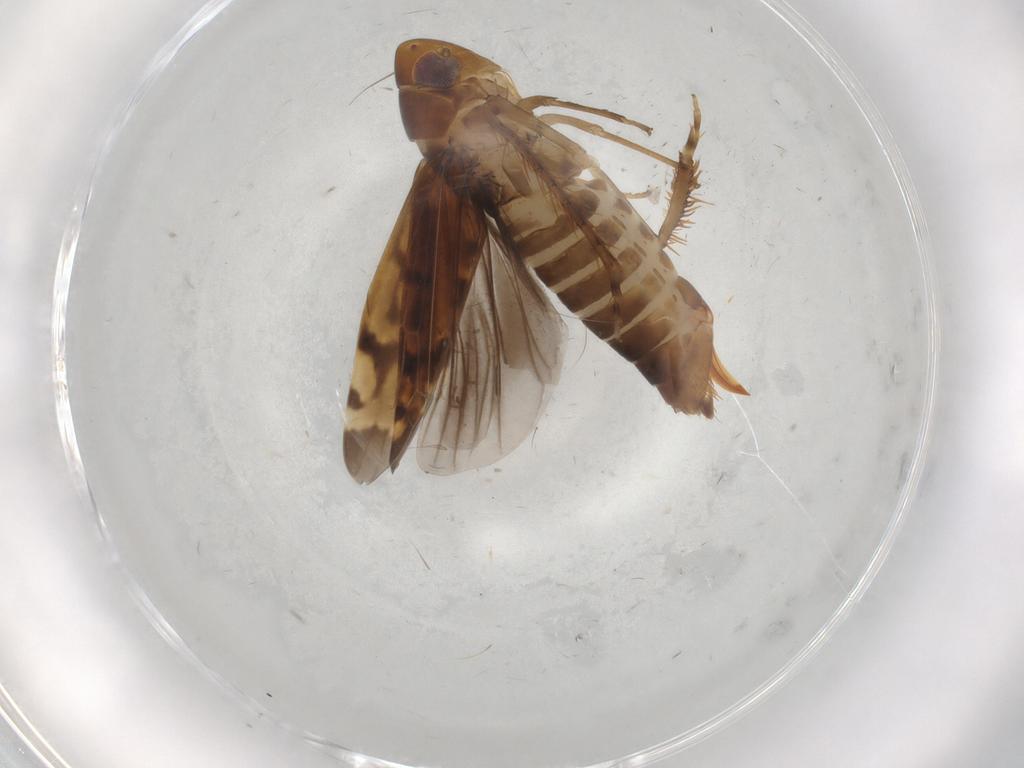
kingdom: Animalia
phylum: Arthropoda
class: Insecta
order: Hemiptera
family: Cicadellidae
